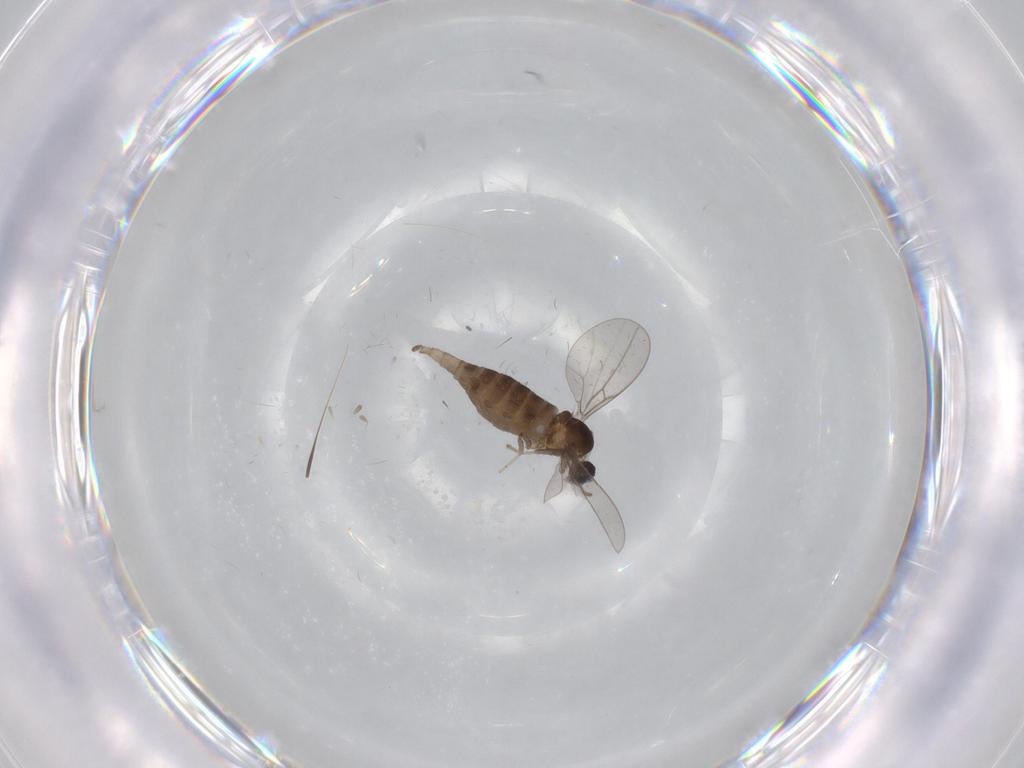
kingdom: Animalia
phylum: Arthropoda
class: Insecta
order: Diptera
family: Cecidomyiidae
